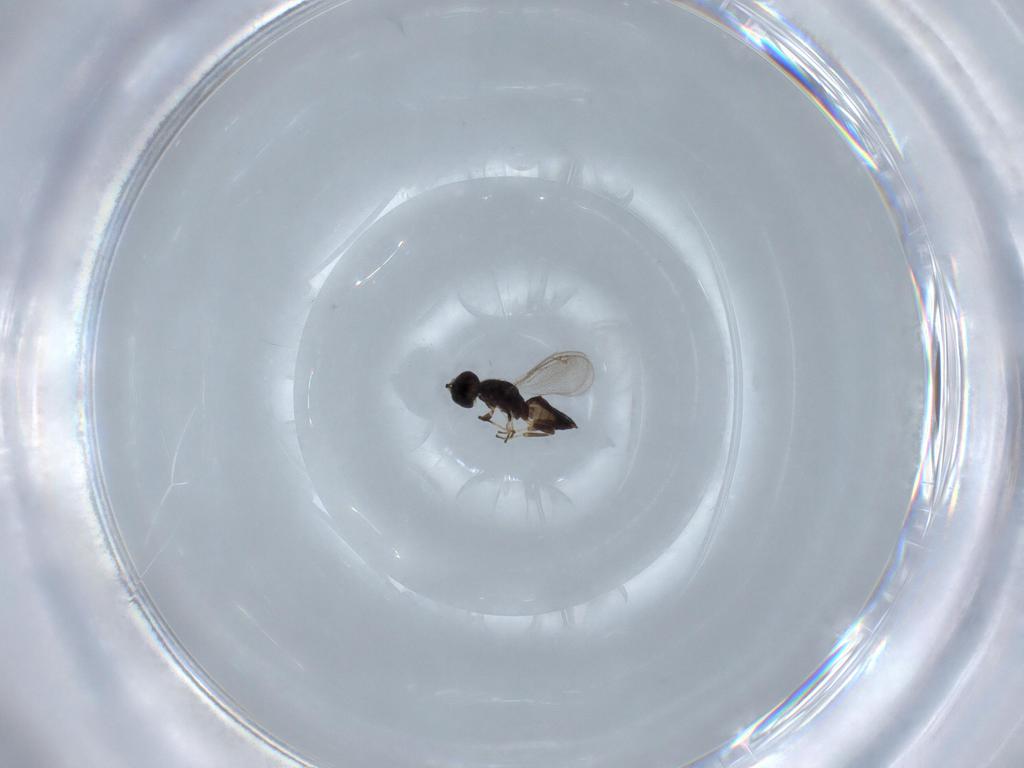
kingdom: Animalia
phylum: Arthropoda
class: Insecta
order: Hymenoptera
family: Eupelmidae
